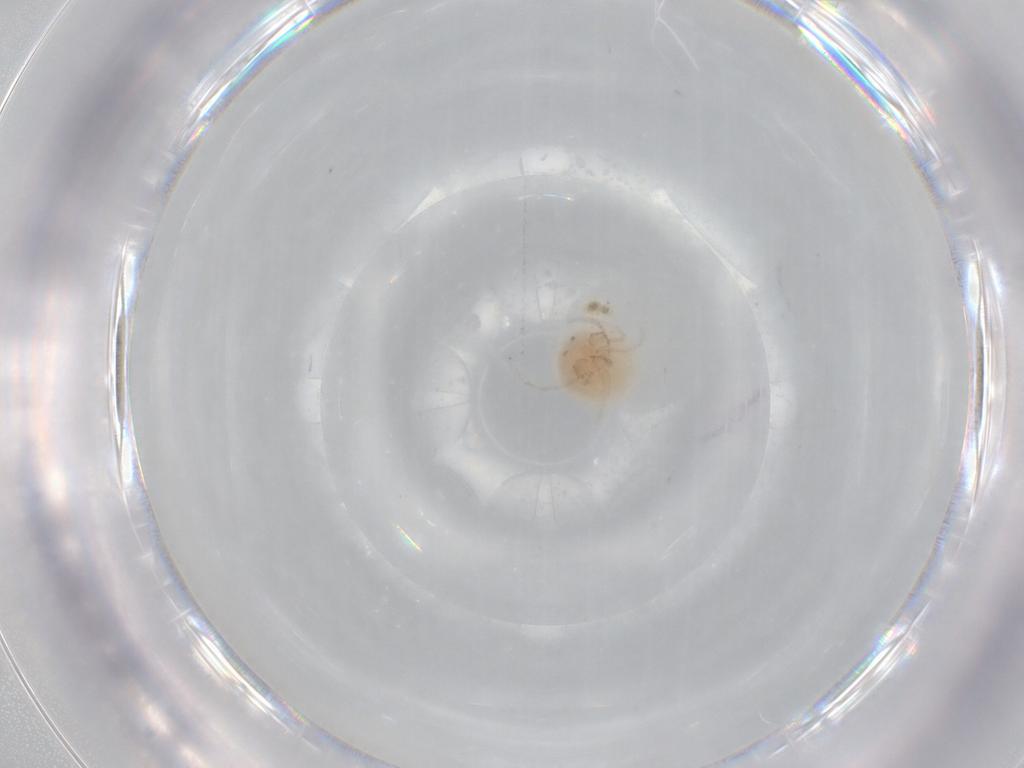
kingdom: Animalia
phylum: Arthropoda
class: Arachnida
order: Trombidiformes
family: Pionidae
